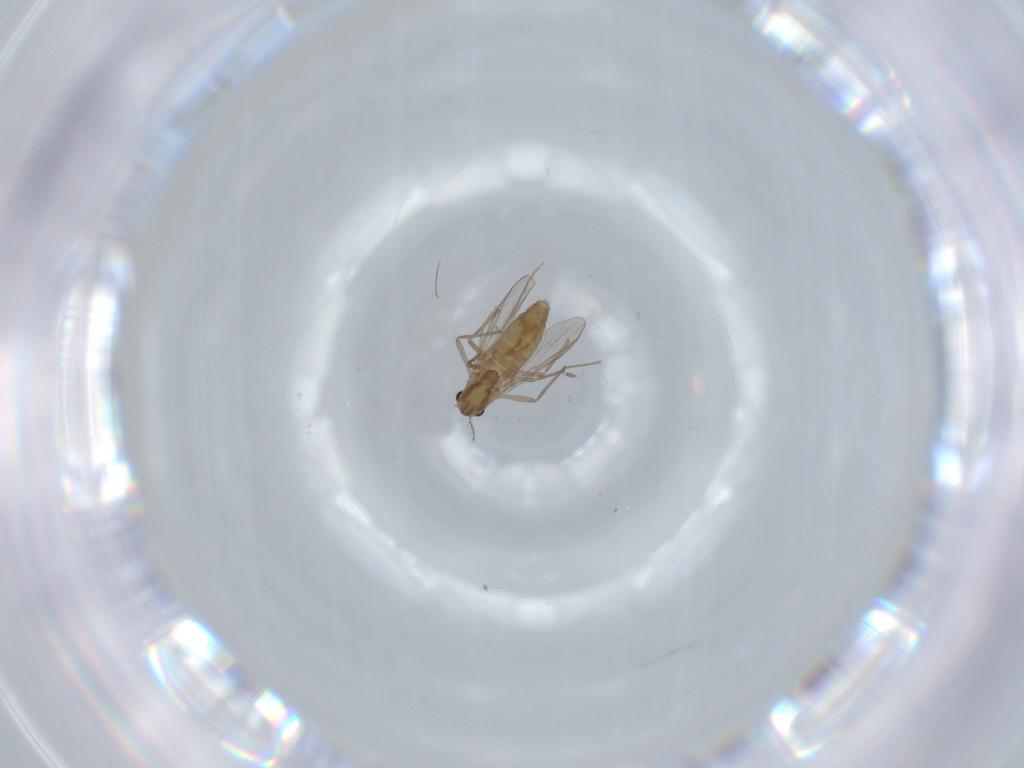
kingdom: Animalia
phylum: Arthropoda
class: Insecta
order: Diptera
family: Chironomidae
